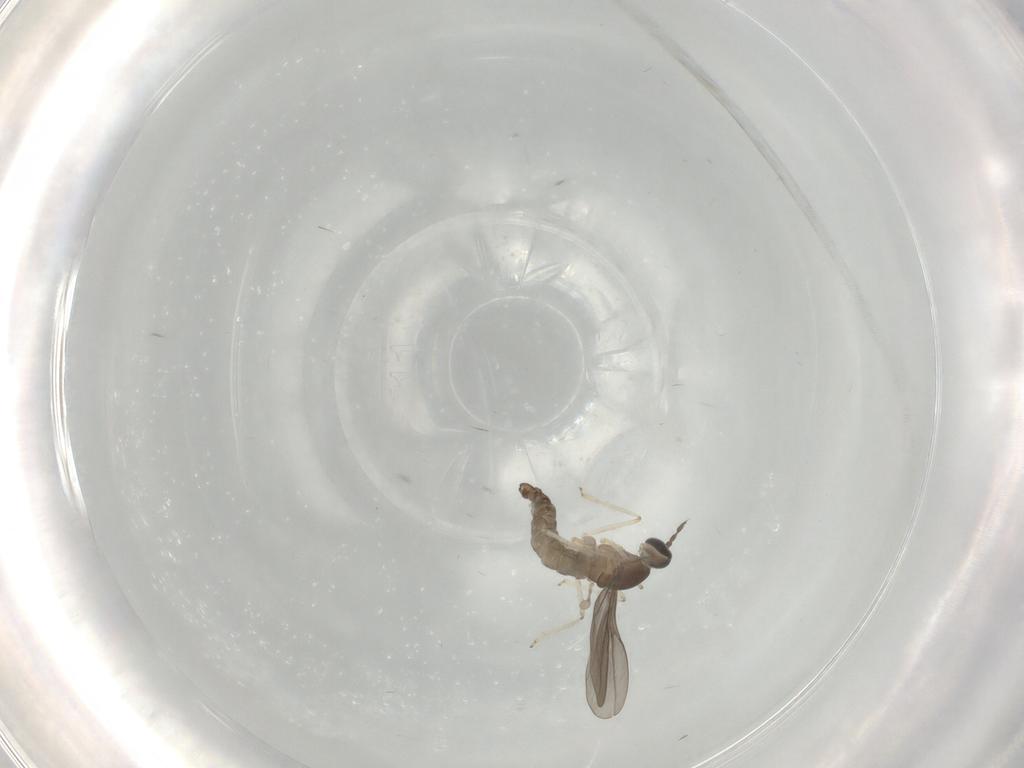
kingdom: Animalia
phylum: Arthropoda
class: Insecta
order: Diptera
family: Cecidomyiidae
